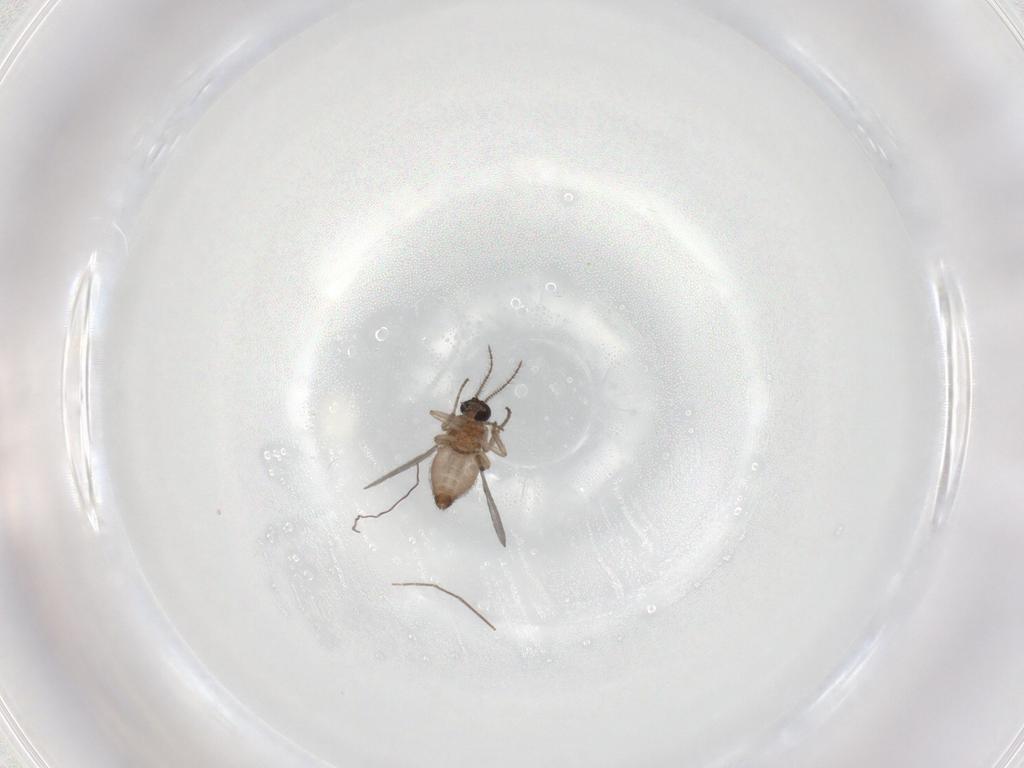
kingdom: Animalia
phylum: Arthropoda
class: Insecta
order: Diptera
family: Chironomidae
